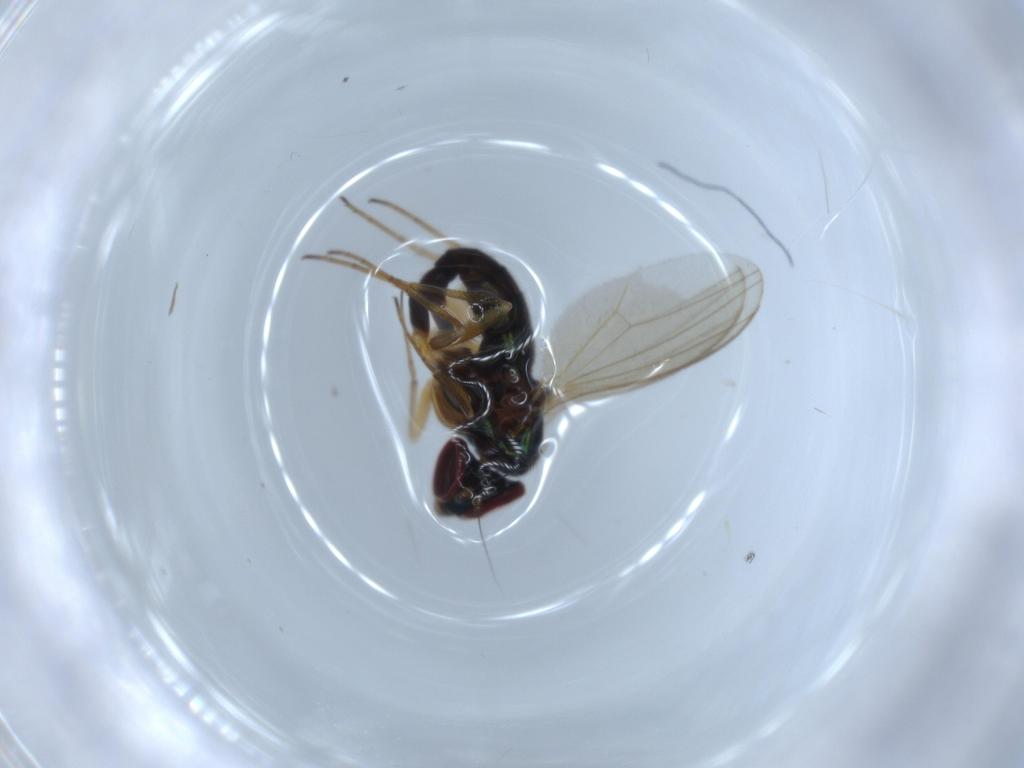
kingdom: Animalia
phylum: Arthropoda
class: Insecta
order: Diptera
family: Dolichopodidae
